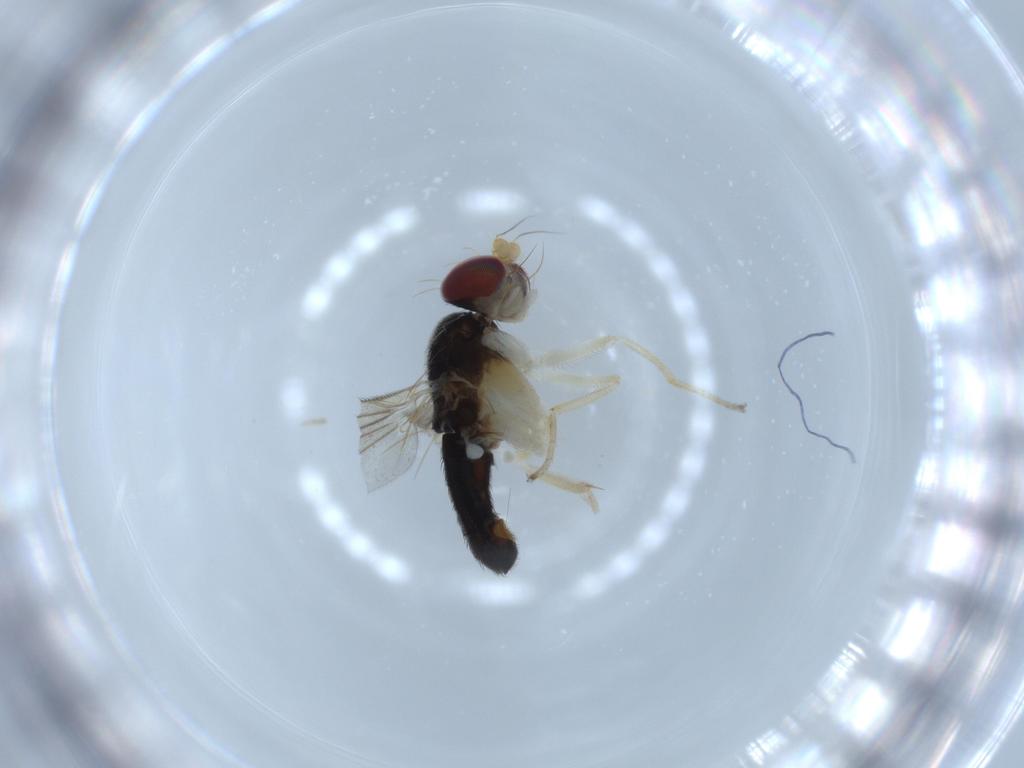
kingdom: Animalia
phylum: Arthropoda
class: Insecta
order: Diptera
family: Clusiidae
